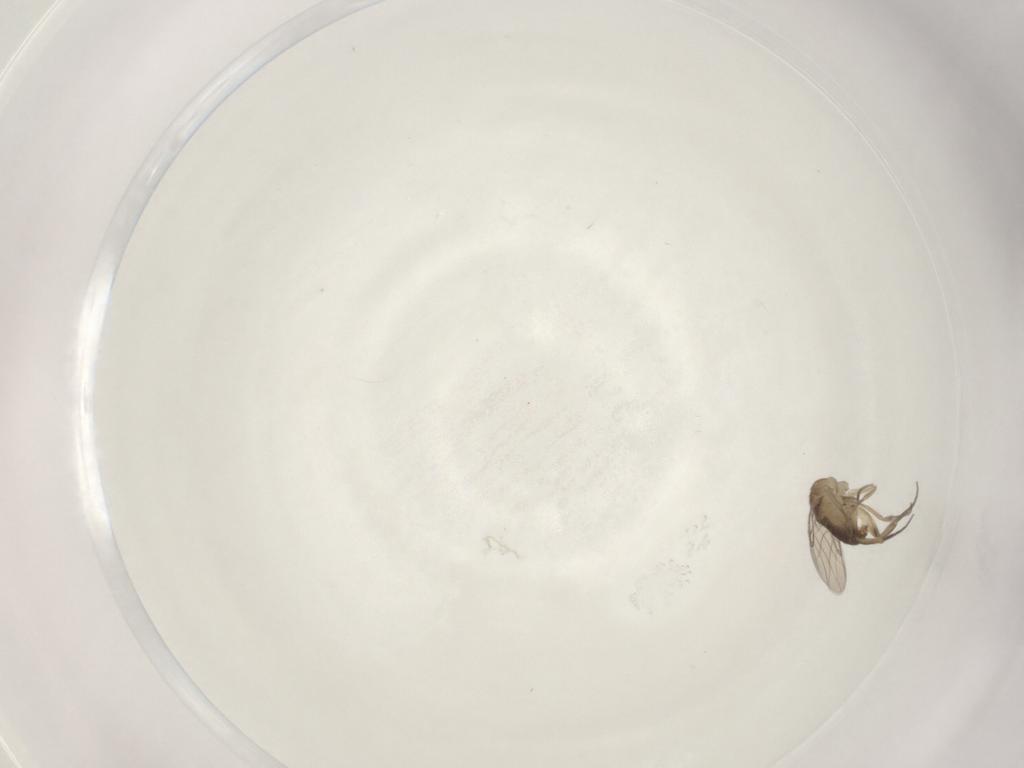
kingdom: Animalia
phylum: Arthropoda
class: Insecta
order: Diptera
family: Phoridae
